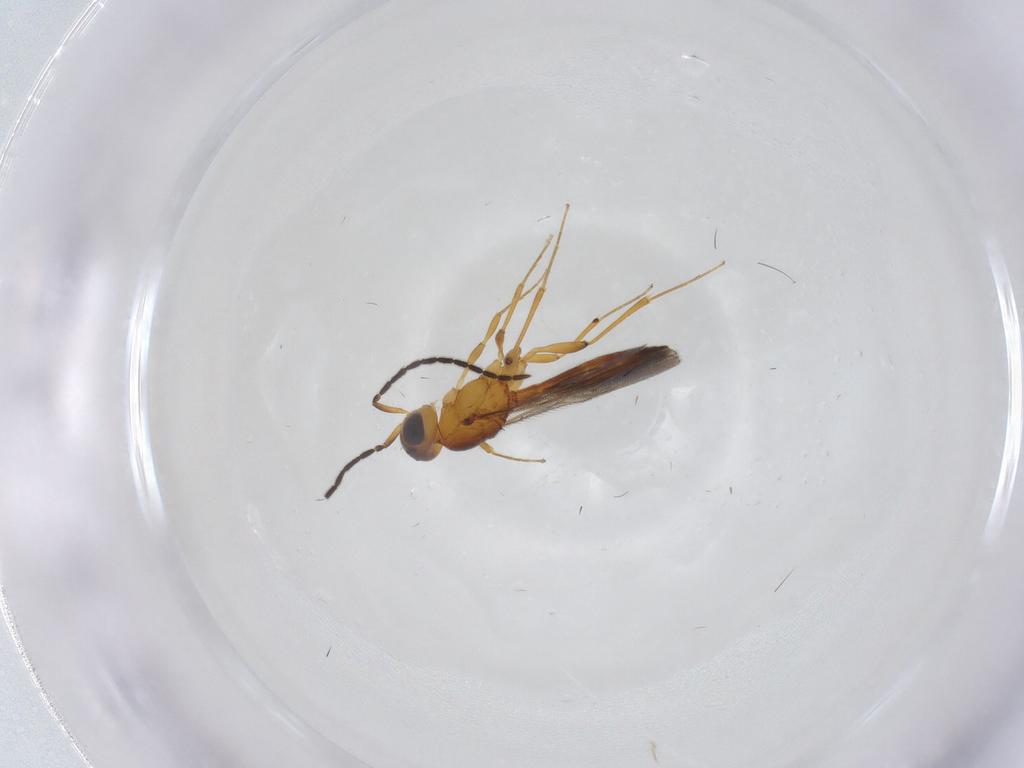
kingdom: Animalia
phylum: Arthropoda
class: Insecta
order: Hymenoptera
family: Scelionidae
